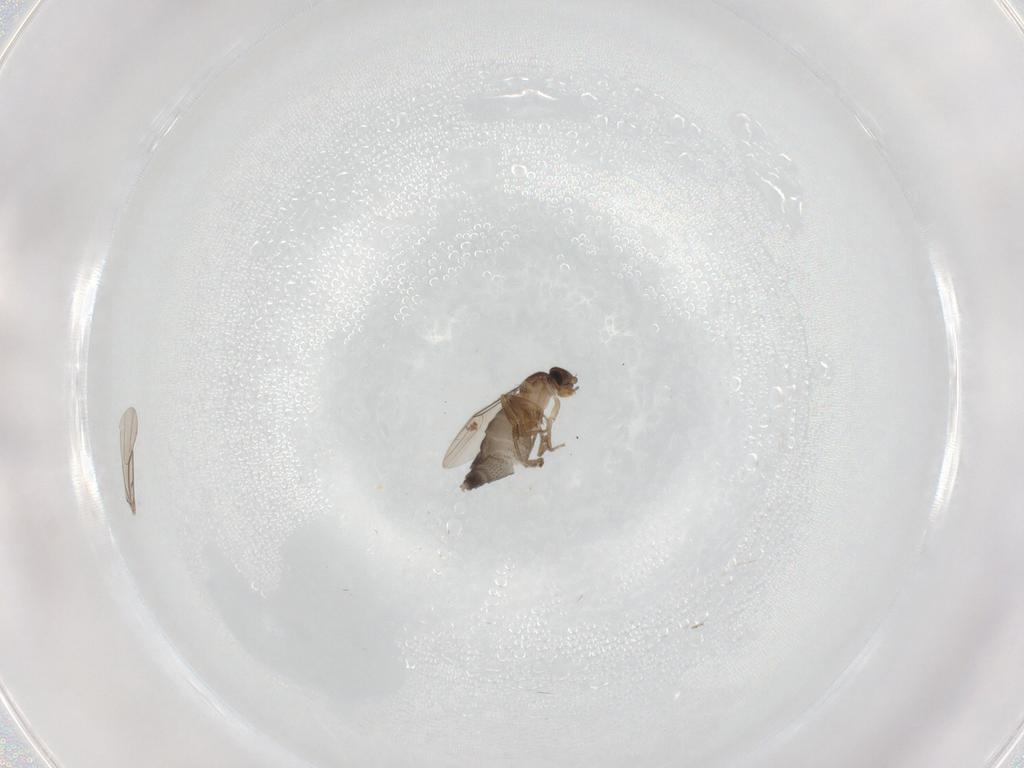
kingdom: Animalia
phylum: Arthropoda
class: Insecta
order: Diptera
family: Phoridae
